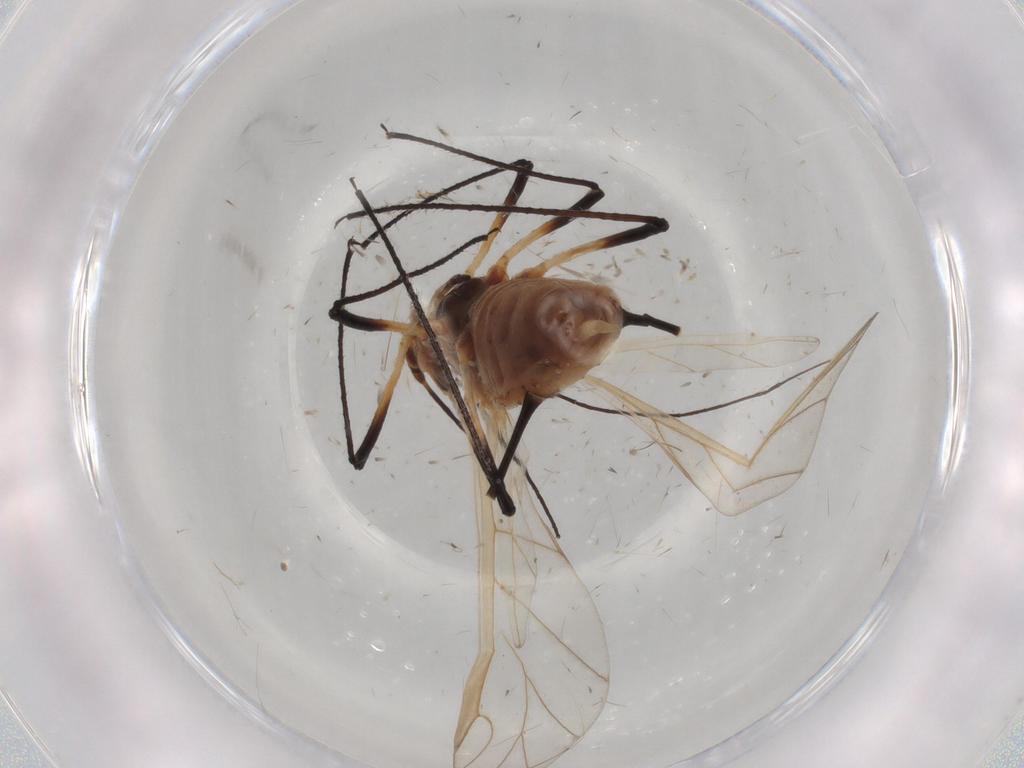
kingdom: Animalia
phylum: Arthropoda
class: Insecta
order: Hemiptera
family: Aphididae
